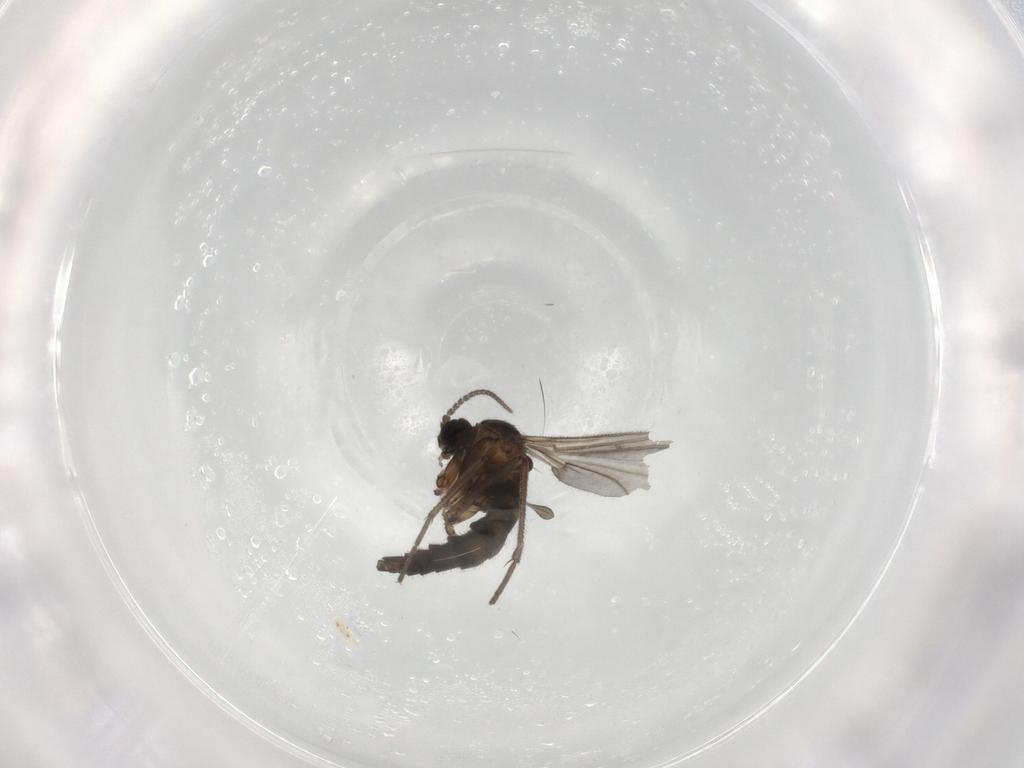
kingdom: Animalia
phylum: Arthropoda
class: Insecta
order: Diptera
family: Sciaridae
